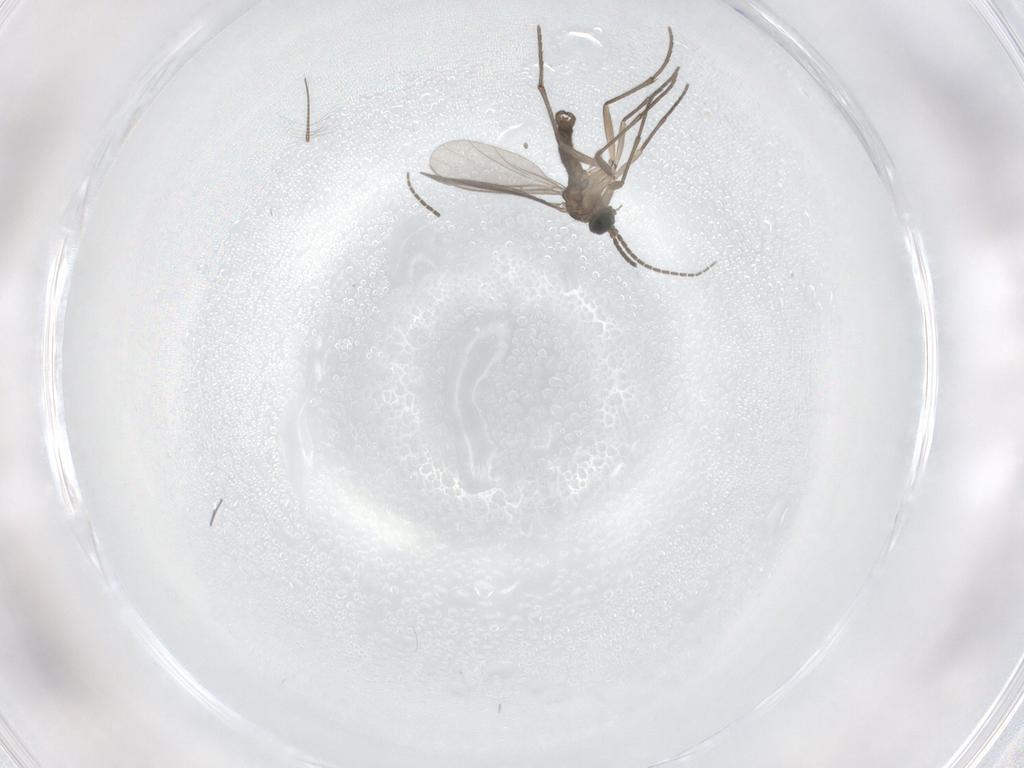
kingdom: Animalia
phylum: Arthropoda
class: Insecta
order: Diptera
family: Sciaridae
